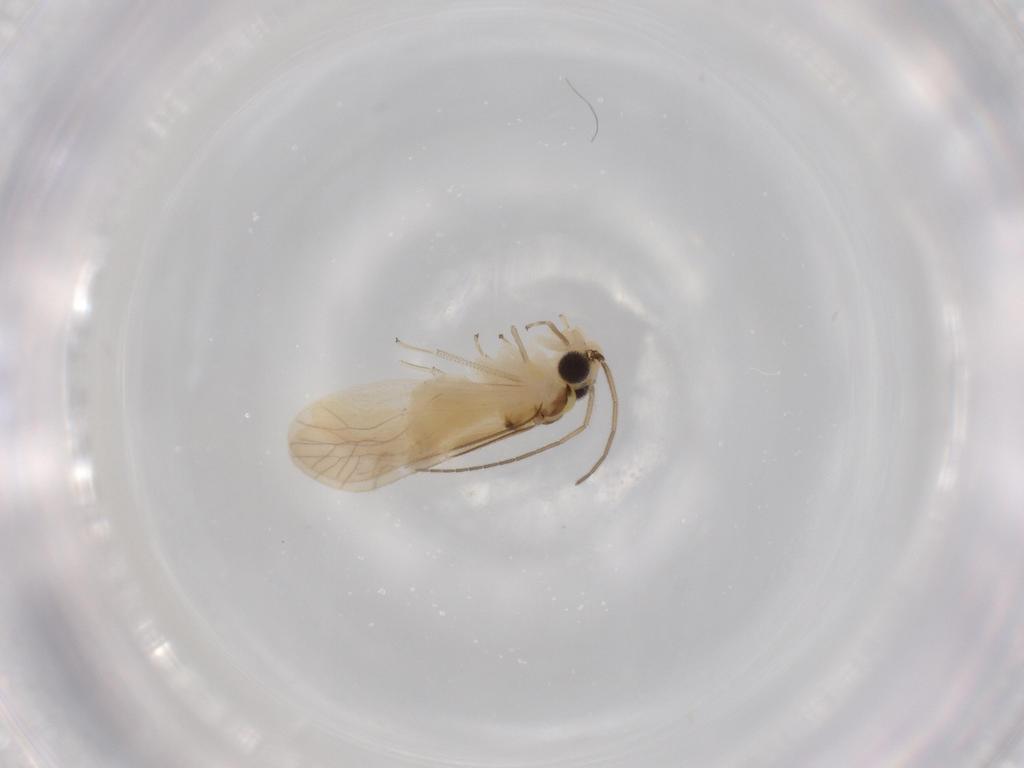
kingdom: Animalia
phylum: Arthropoda
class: Insecta
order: Psocodea
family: Caeciliusidae
